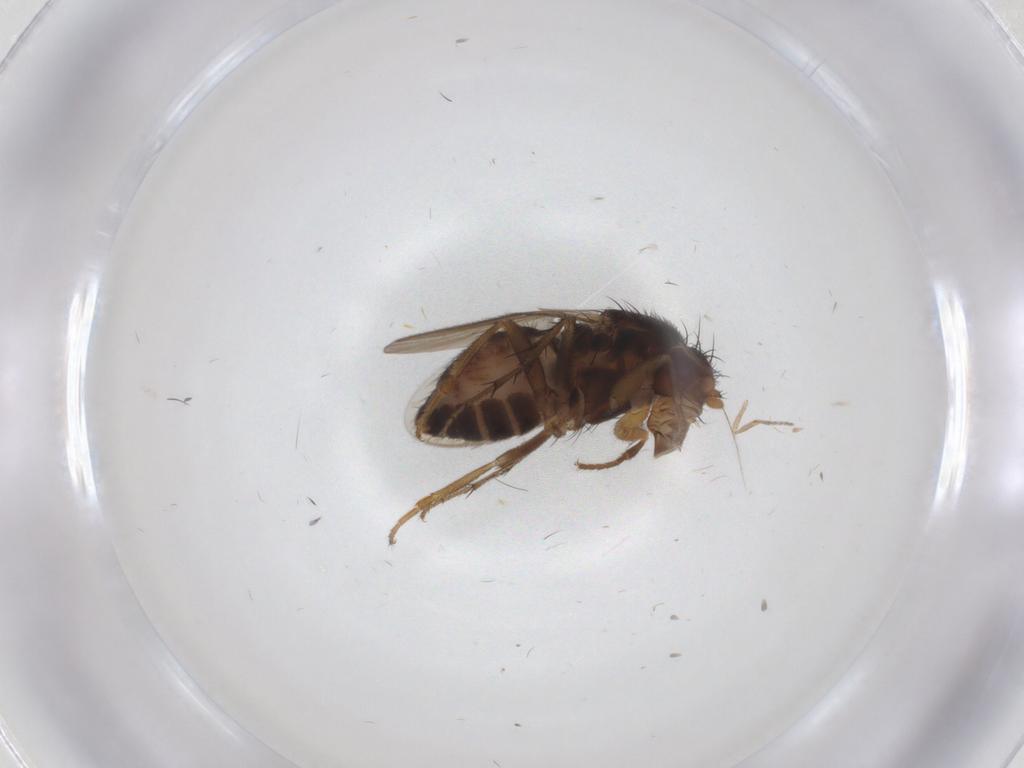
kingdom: Animalia
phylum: Arthropoda
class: Insecta
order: Diptera
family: Sphaeroceridae
